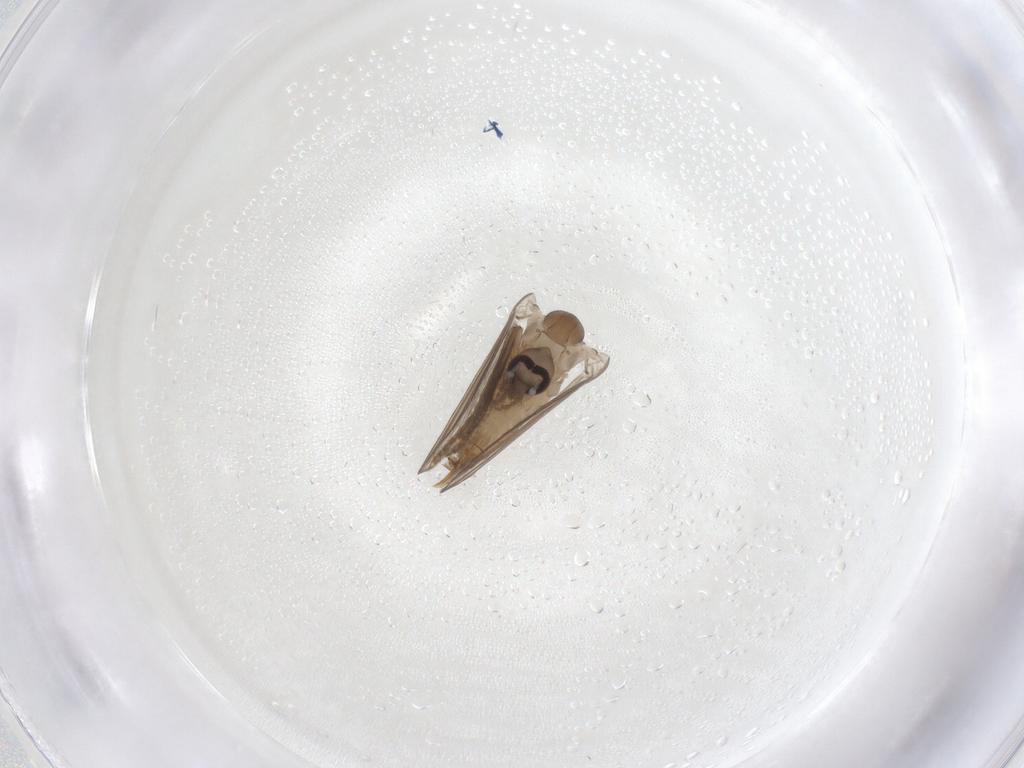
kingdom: Animalia
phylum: Arthropoda
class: Insecta
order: Diptera
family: Psychodidae
